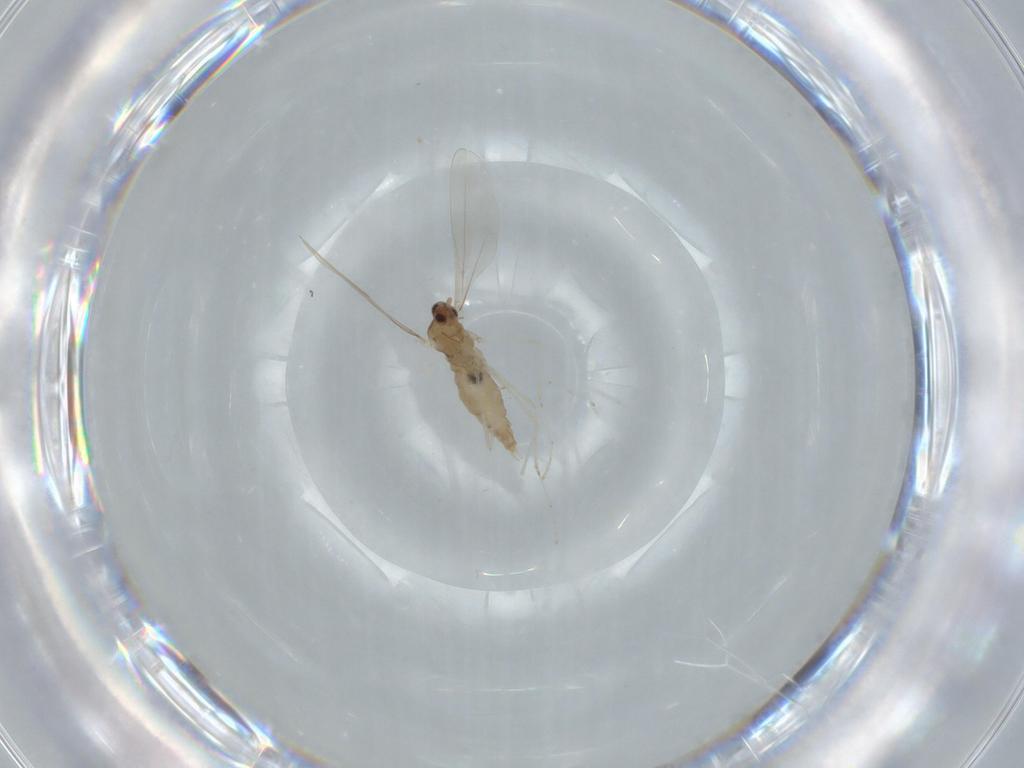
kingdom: Animalia
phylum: Arthropoda
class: Insecta
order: Diptera
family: Cecidomyiidae
